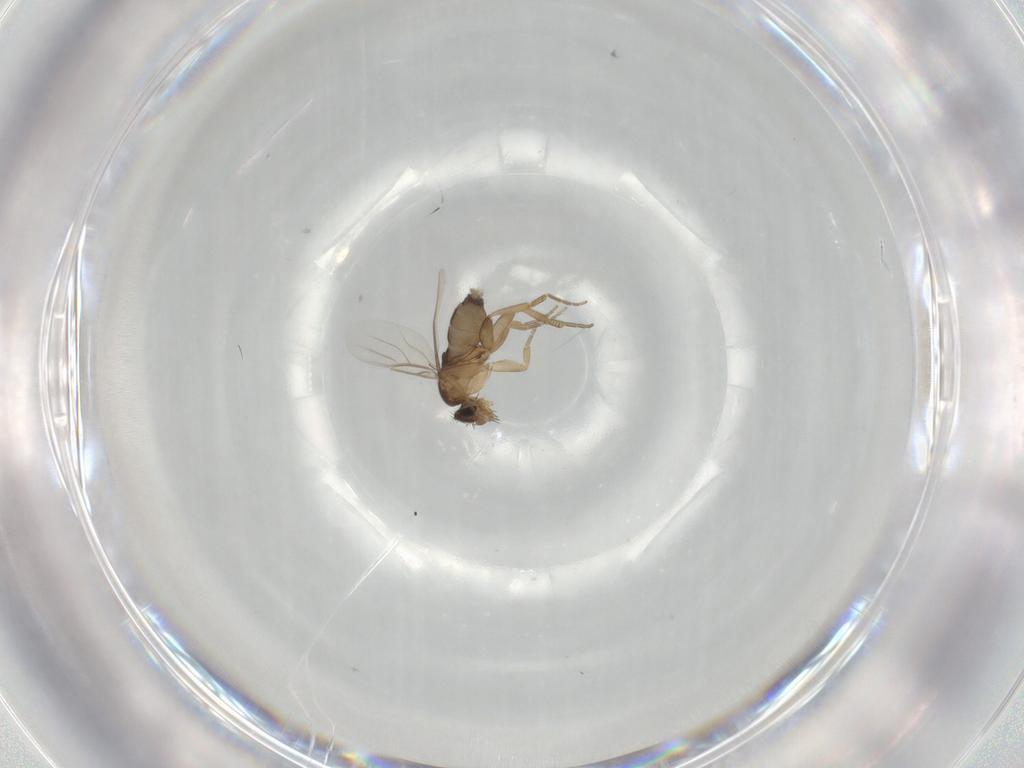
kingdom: Animalia
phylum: Arthropoda
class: Insecta
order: Diptera
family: Phoridae
